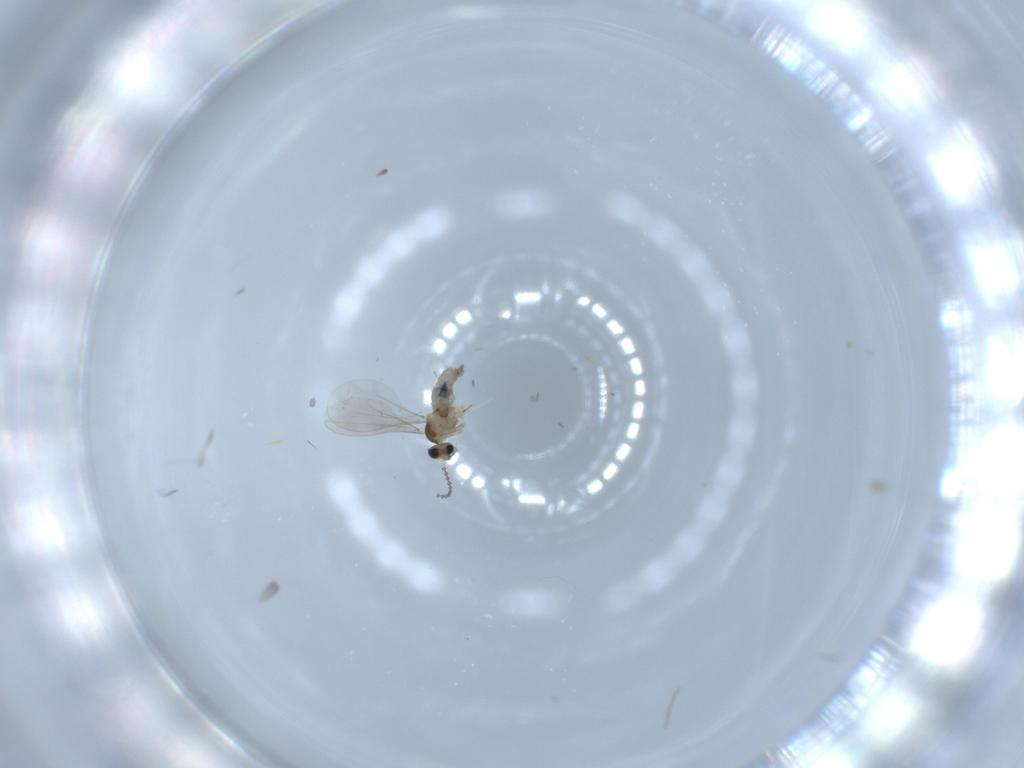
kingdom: Animalia
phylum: Arthropoda
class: Insecta
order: Diptera
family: Cecidomyiidae
